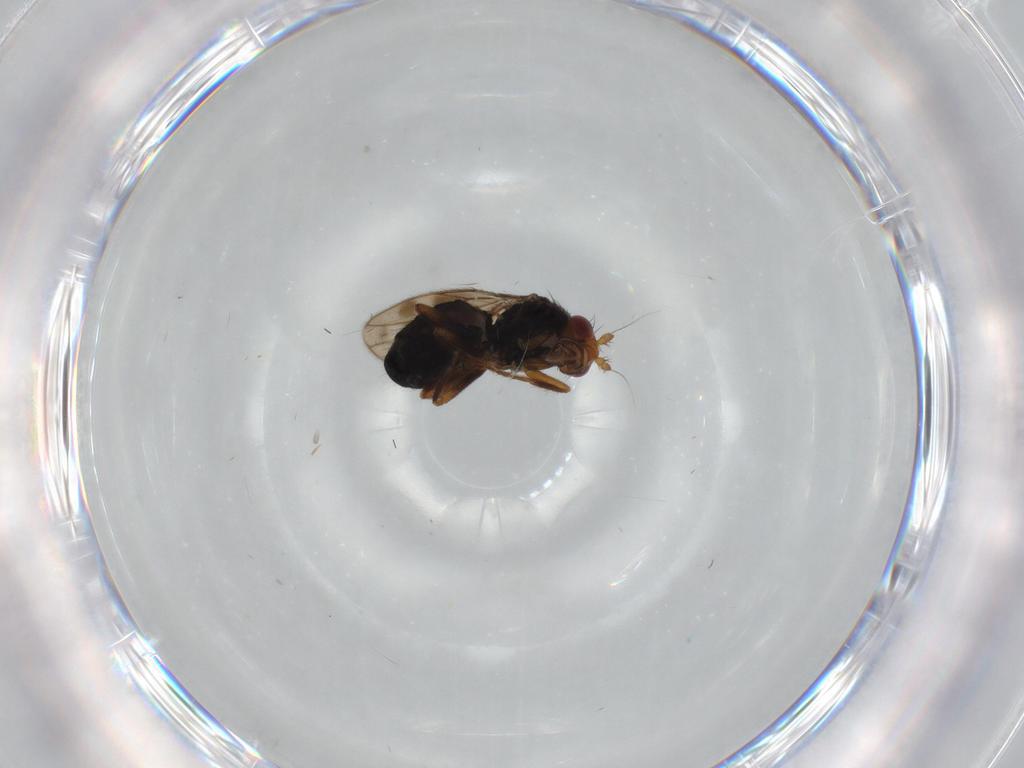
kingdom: Animalia
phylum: Arthropoda
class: Insecta
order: Diptera
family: Sphaeroceridae
